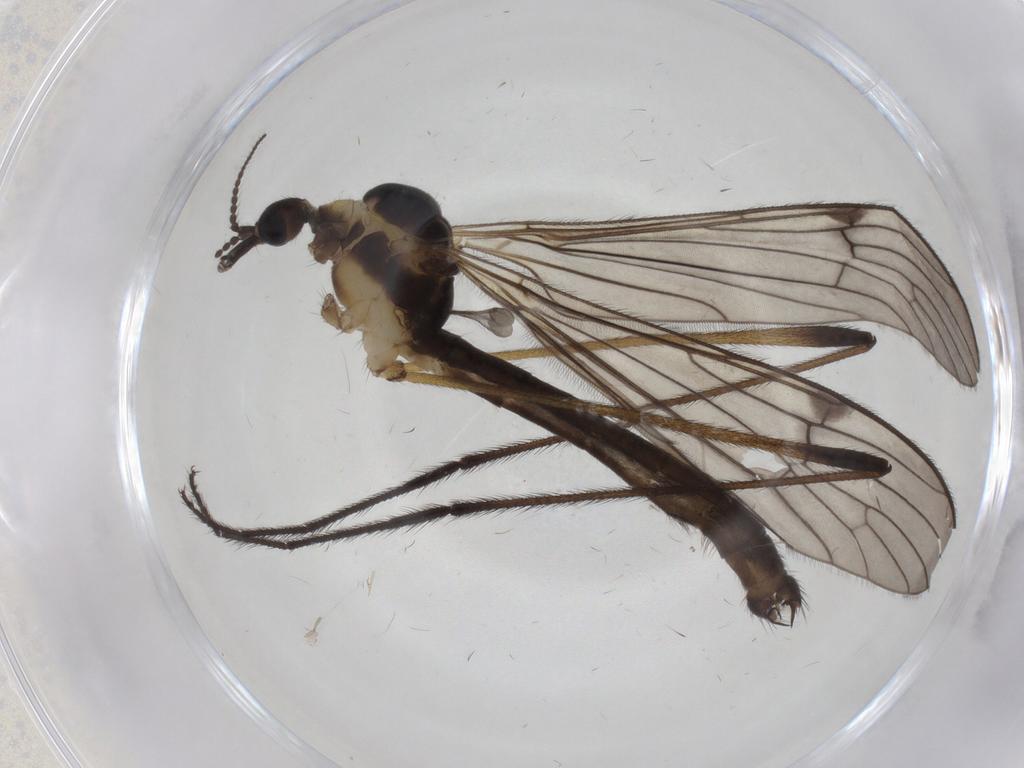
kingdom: Animalia
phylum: Arthropoda
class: Insecta
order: Diptera
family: Limoniidae
